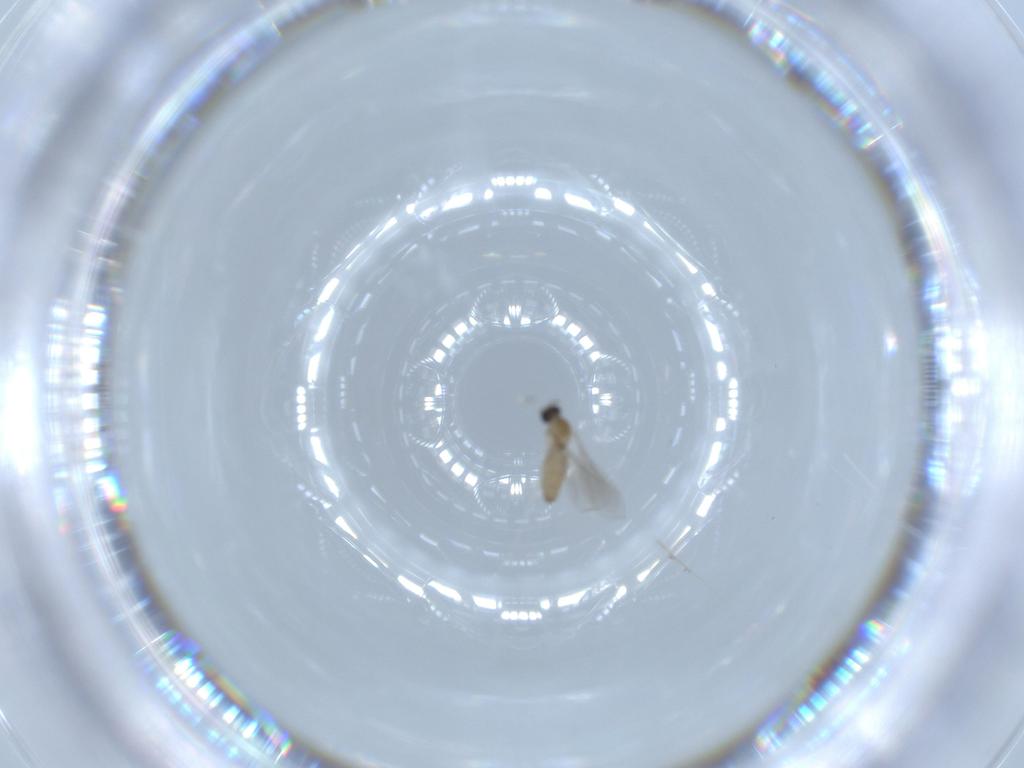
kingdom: Animalia
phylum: Arthropoda
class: Insecta
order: Diptera
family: Cecidomyiidae
